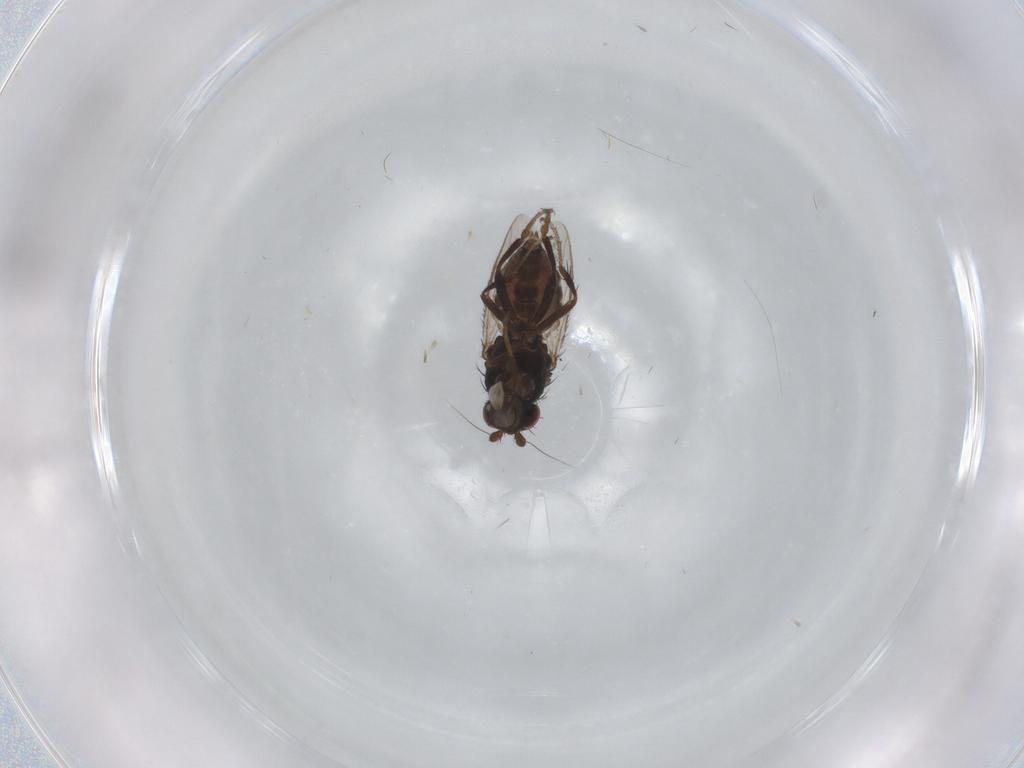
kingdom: Animalia
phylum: Arthropoda
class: Insecta
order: Diptera
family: Sphaeroceridae
